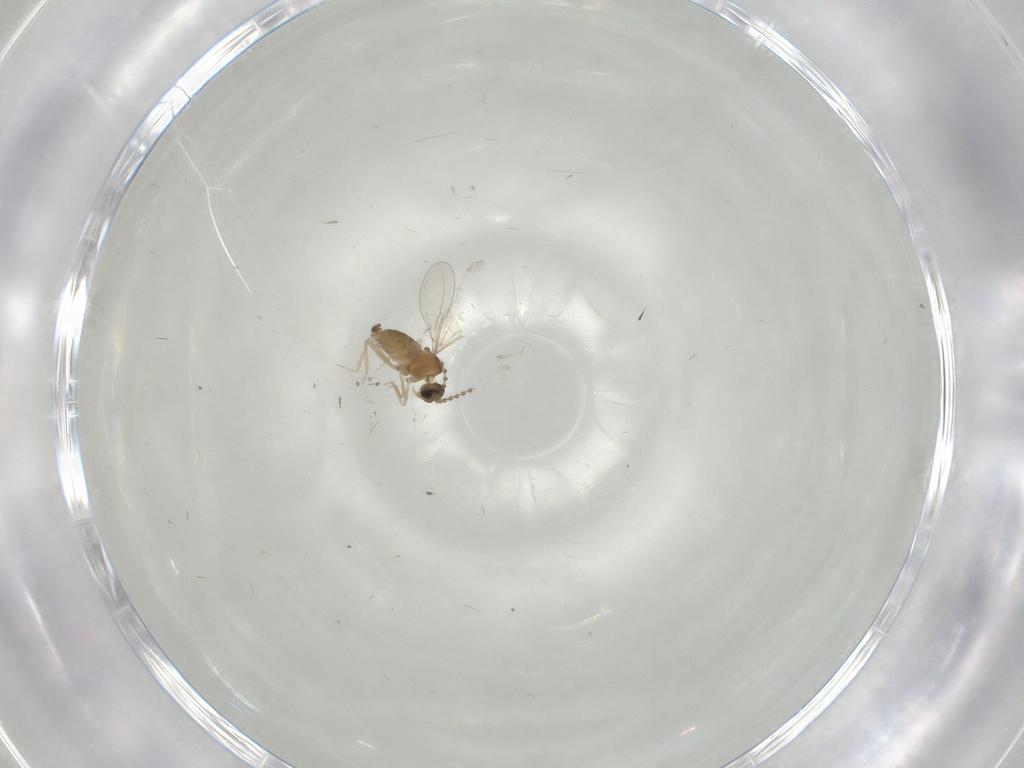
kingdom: Animalia
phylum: Arthropoda
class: Insecta
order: Diptera
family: Cecidomyiidae
